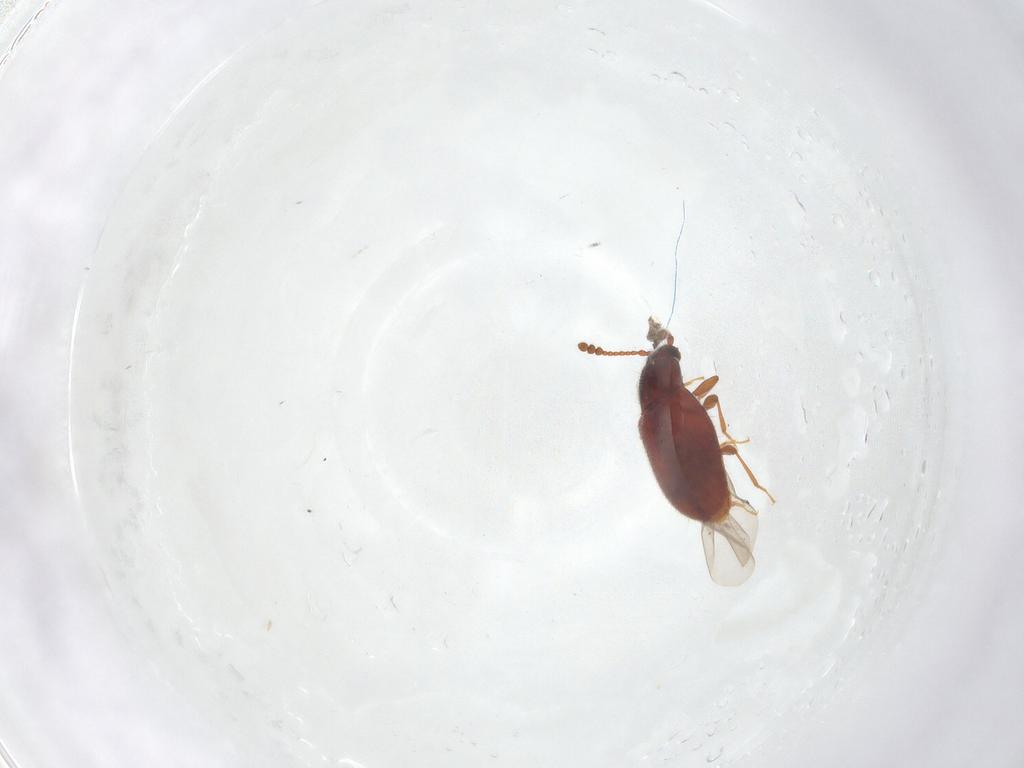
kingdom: Animalia
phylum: Arthropoda
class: Insecta
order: Coleoptera
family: Cryptophagidae
